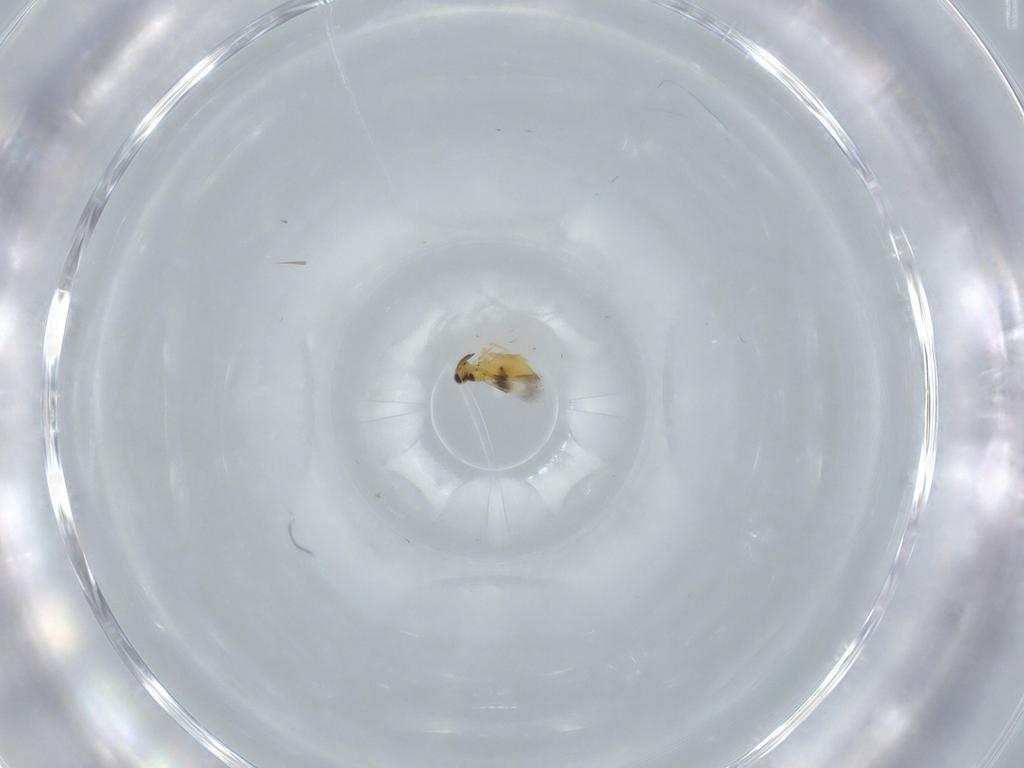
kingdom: Animalia
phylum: Arthropoda
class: Insecta
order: Hymenoptera
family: Signiphoridae
